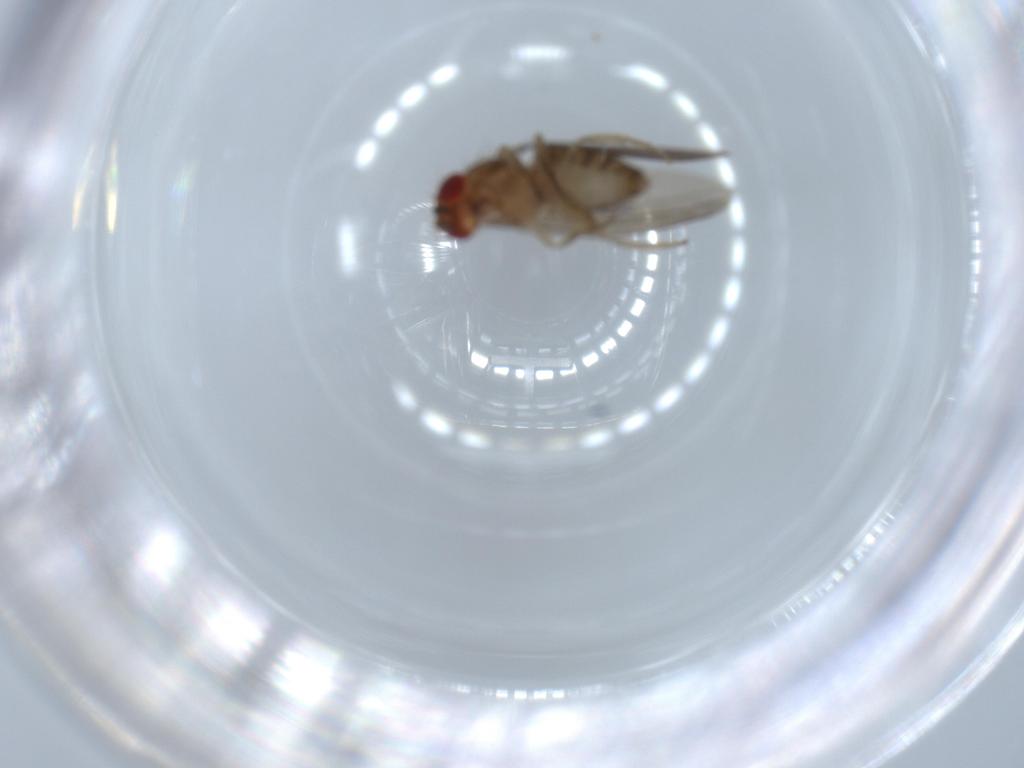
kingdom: Animalia
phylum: Arthropoda
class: Insecta
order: Diptera
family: Drosophilidae
